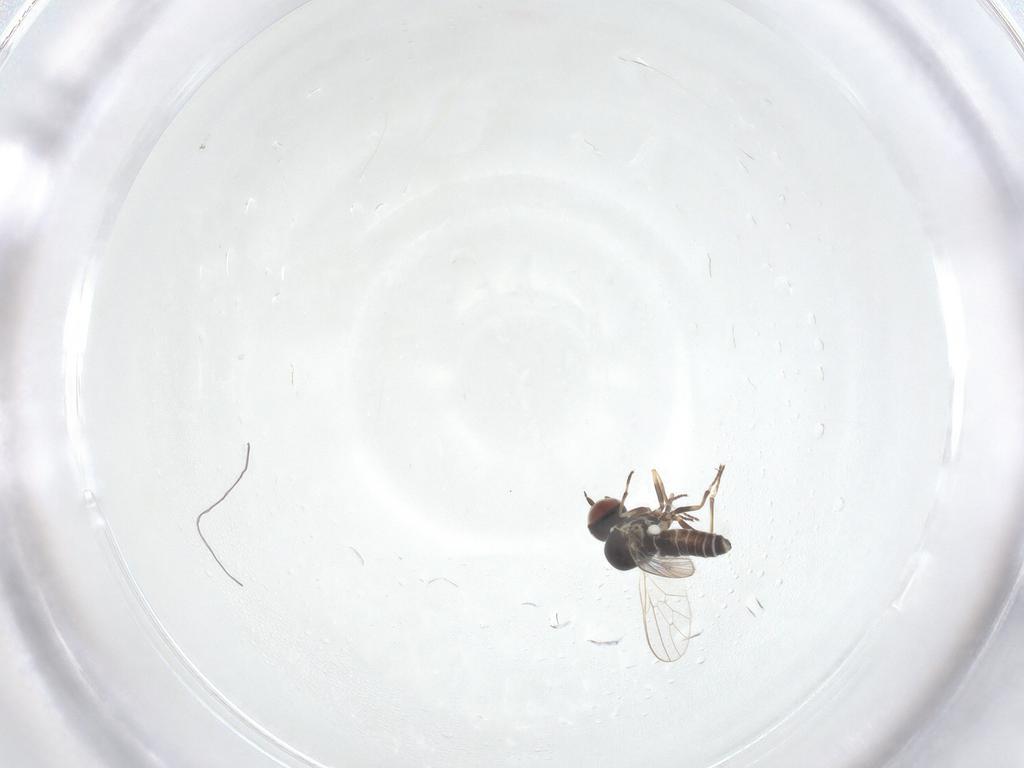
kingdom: Animalia
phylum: Arthropoda
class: Insecta
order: Diptera
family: Mythicomyiidae
